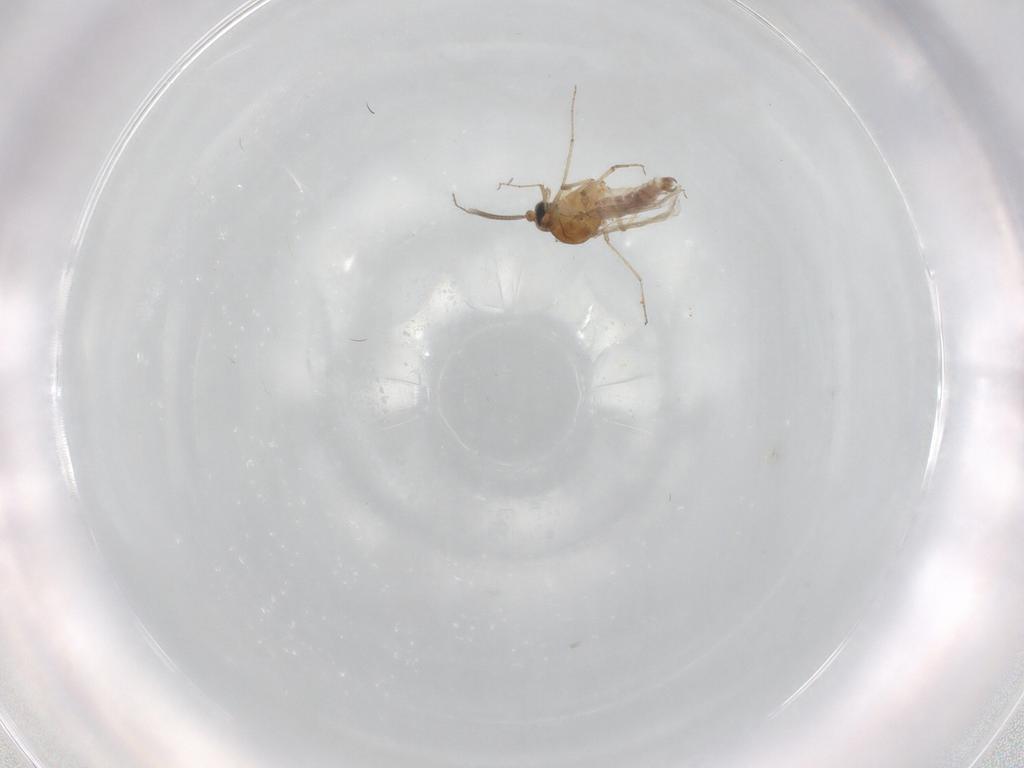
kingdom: Animalia
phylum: Arthropoda
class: Insecta
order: Diptera
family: Cecidomyiidae
